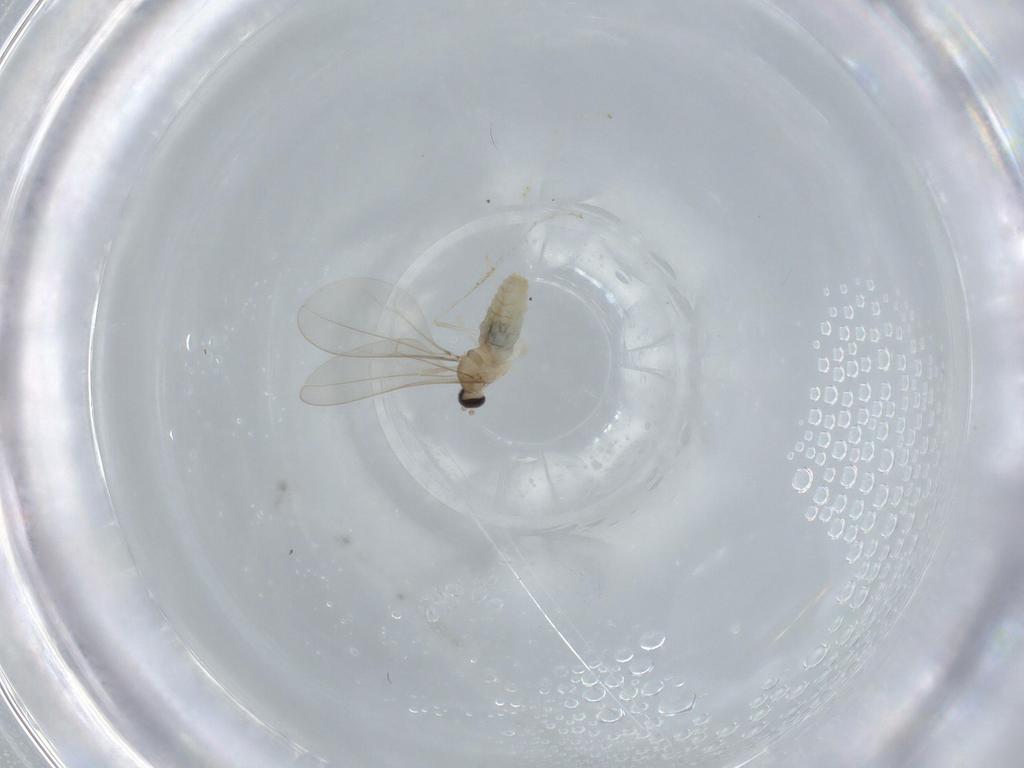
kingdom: Animalia
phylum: Arthropoda
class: Insecta
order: Diptera
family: Cecidomyiidae
